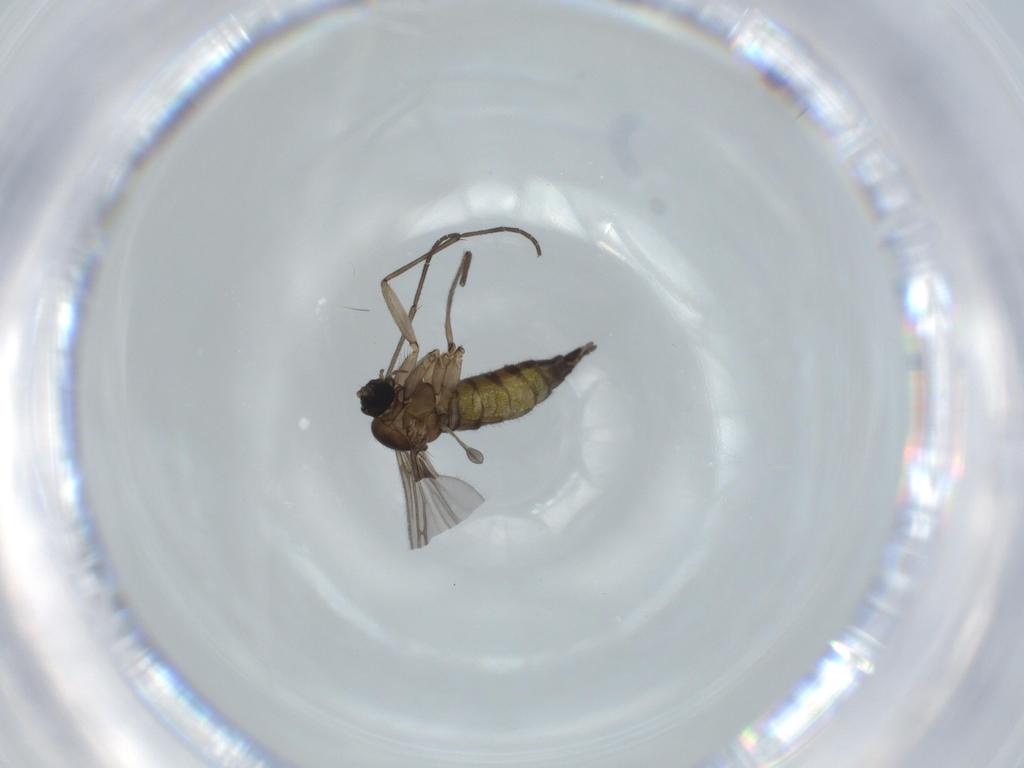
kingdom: Animalia
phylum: Arthropoda
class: Insecta
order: Diptera
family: Sciaridae
